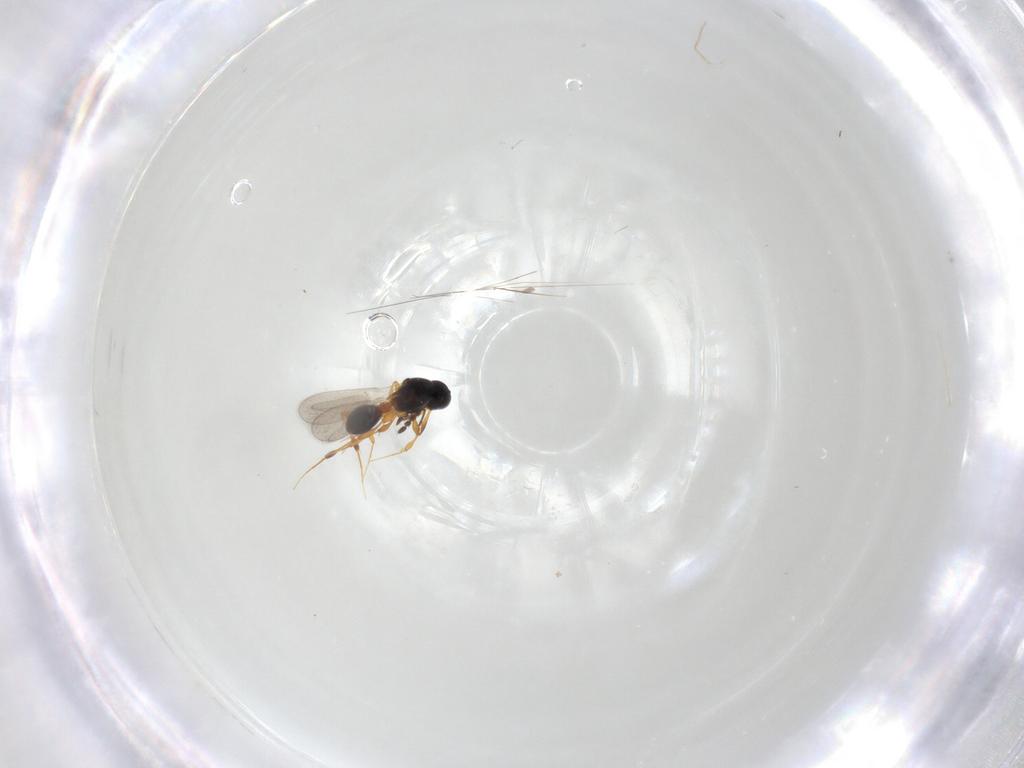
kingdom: Animalia
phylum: Arthropoda
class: Insecta
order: Hymenoptera
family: Platygastridae
